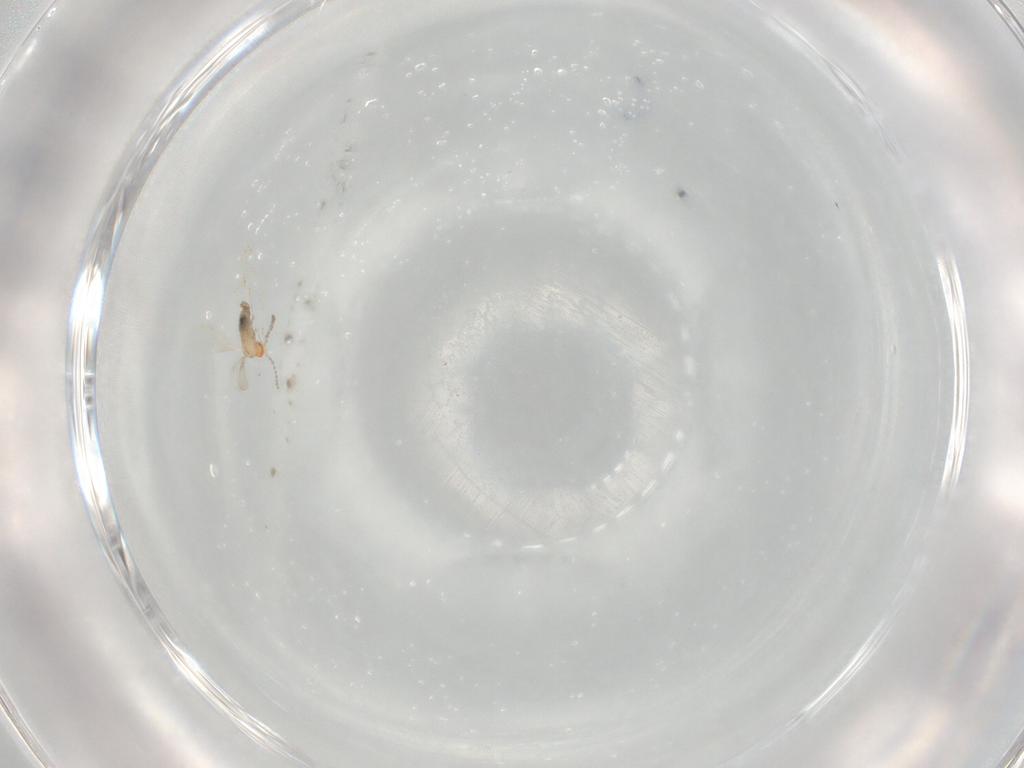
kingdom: Animalia
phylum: Arthropoda
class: Insecta
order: Diptera
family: Cecidomyiidae
